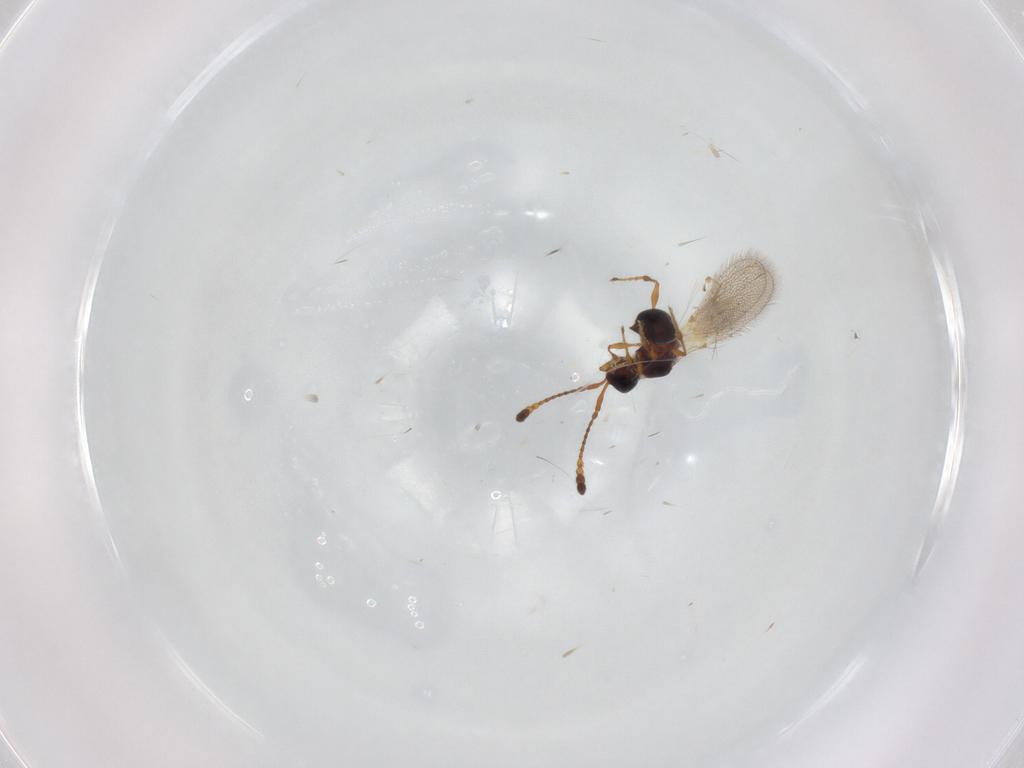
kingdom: Animalia
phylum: Arthropoda
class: Insecta
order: Hymenoptera
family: Diapriidae
